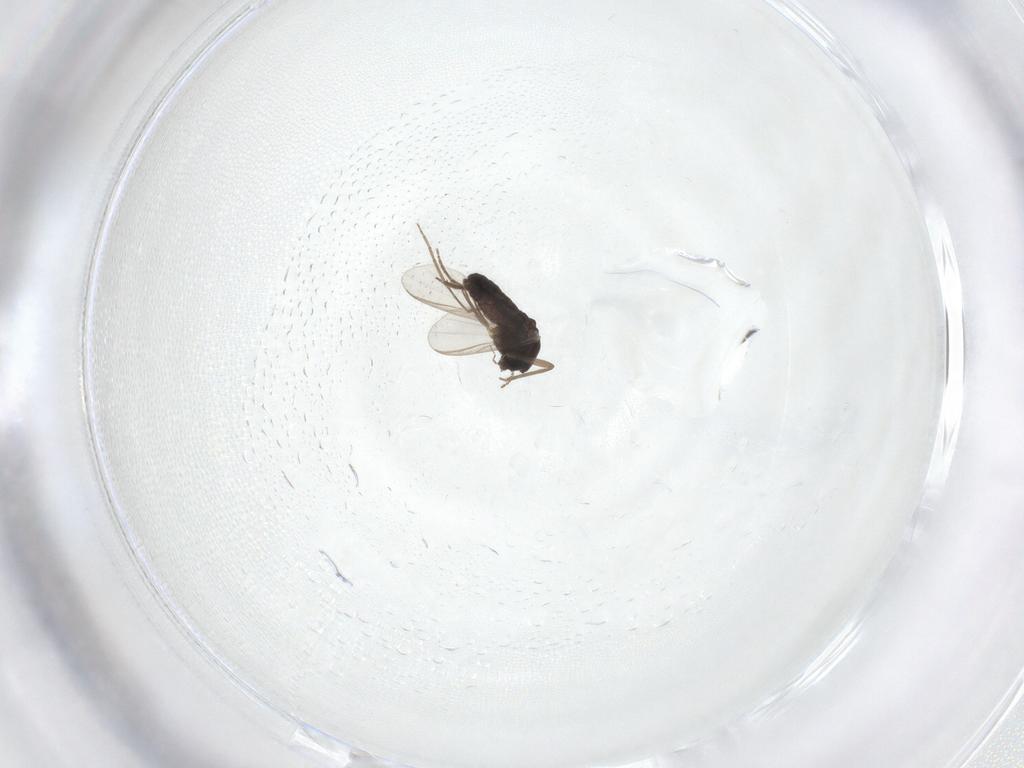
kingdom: Animalia
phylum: Arthropoda
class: Insecta
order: Diptera
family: Chironomidae
